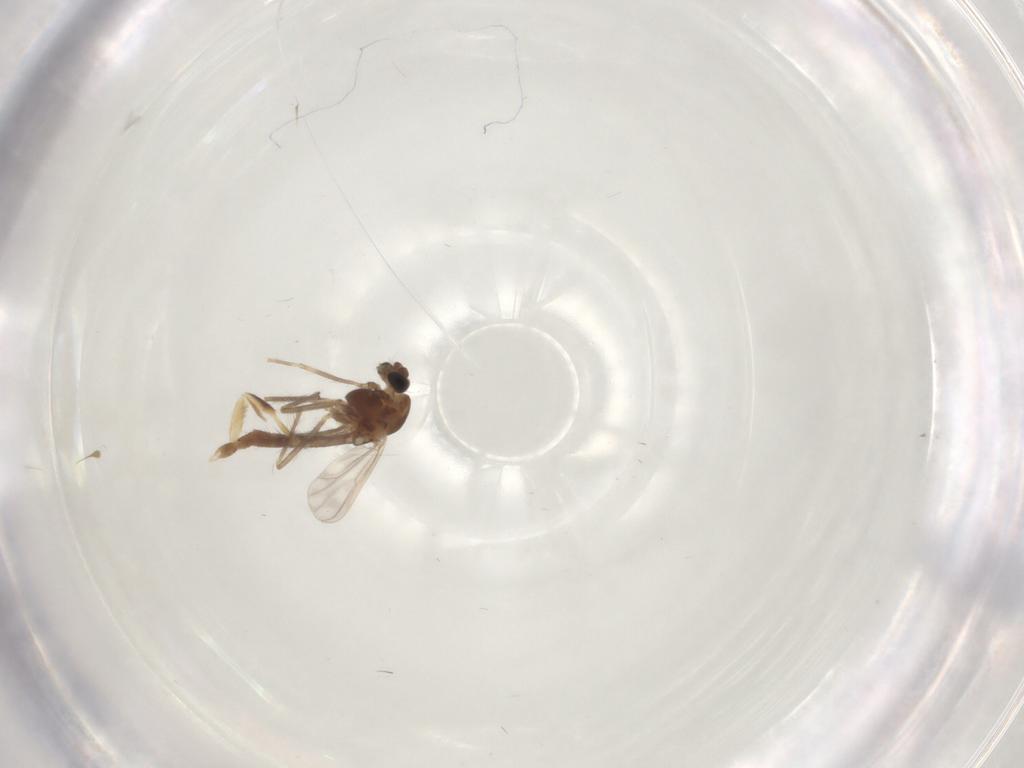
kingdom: Animalia
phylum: Arthropoda
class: Insecta
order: Diptera
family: Chironomidae
